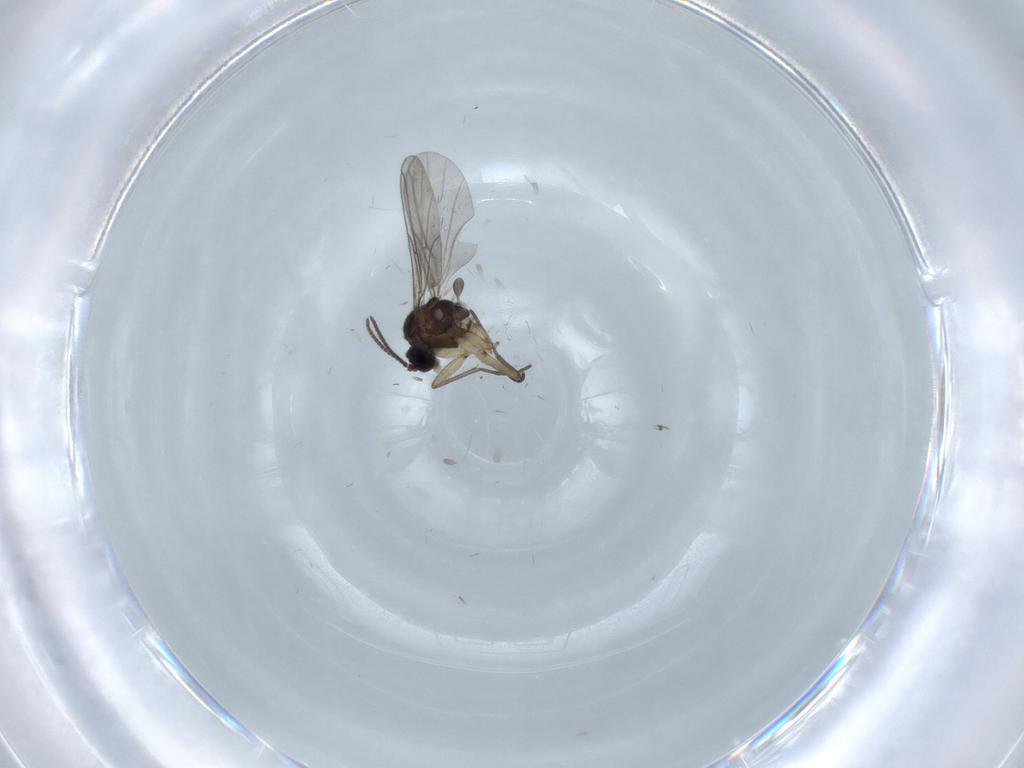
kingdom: Animalia
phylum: Arthropoda
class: Insecta
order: Diptera
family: Sciaridae
